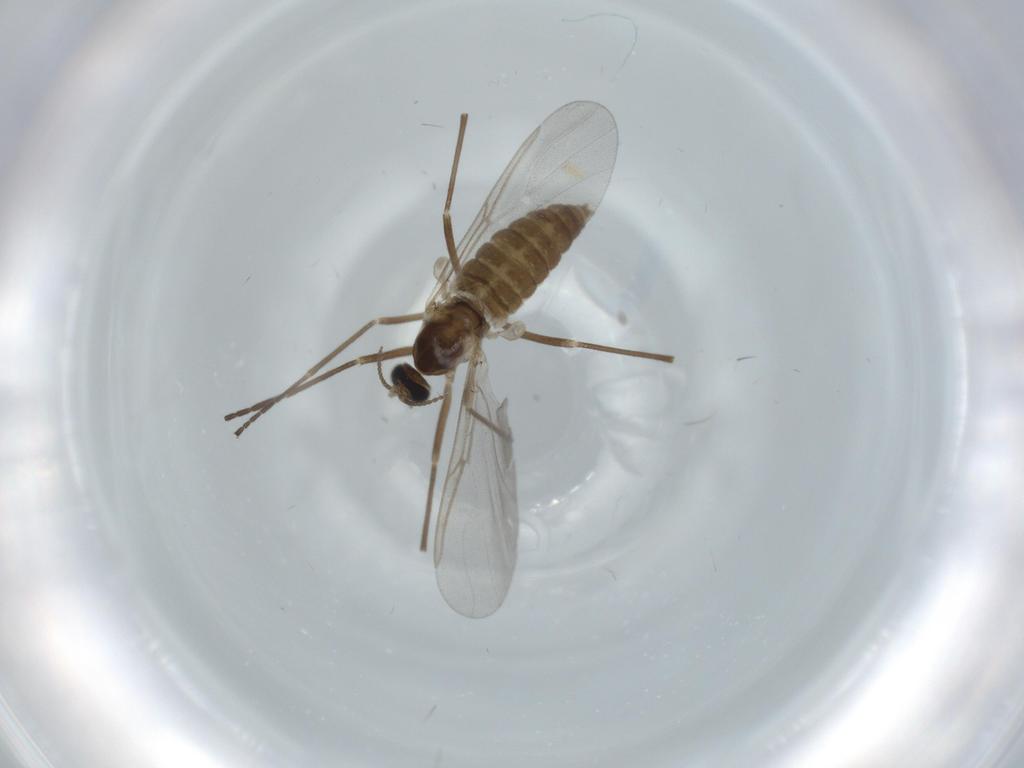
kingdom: Animalia
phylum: Arthropoda
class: Insecta
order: Diptera
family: Cecidomyiidae
